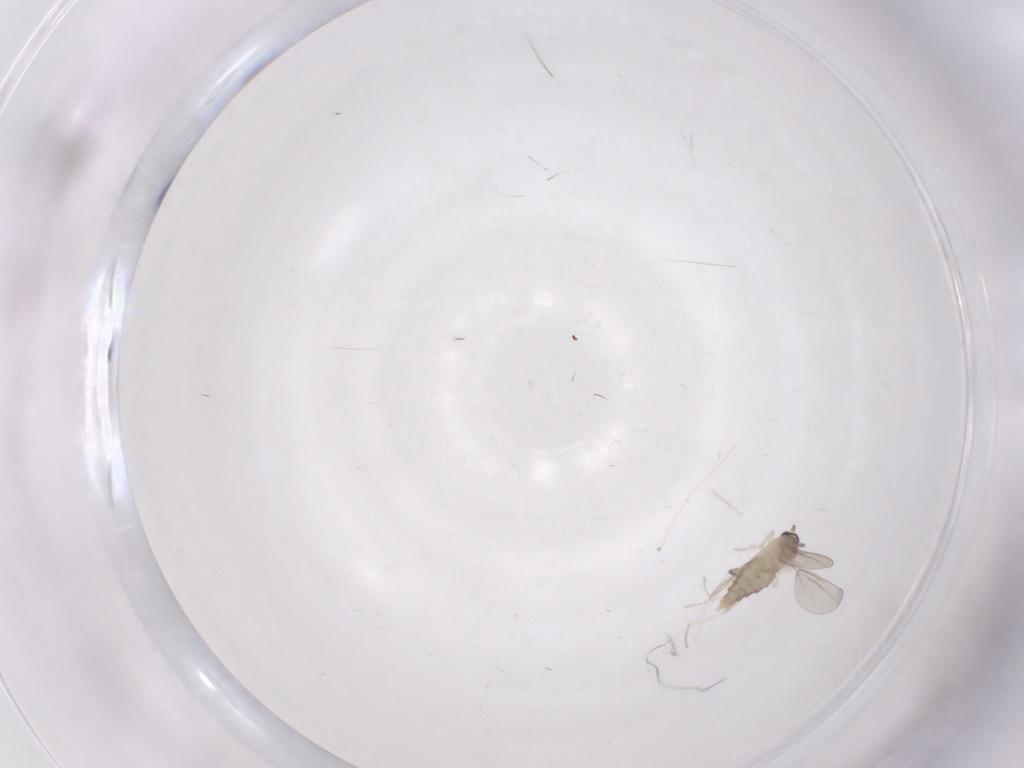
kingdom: Animalia
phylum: Arthropoda
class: Insecta
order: Diptera
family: Cecidomyiidae
